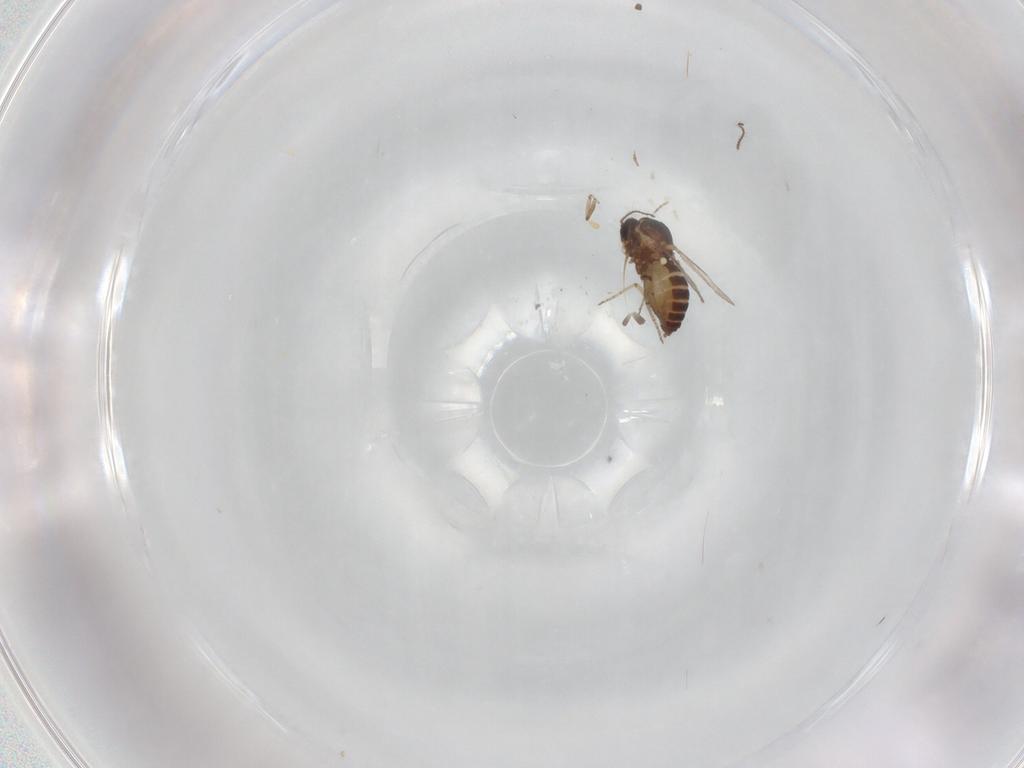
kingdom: Animalia
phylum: Arthropoda
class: Insecta
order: Diptera
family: Ceratopogonidae
